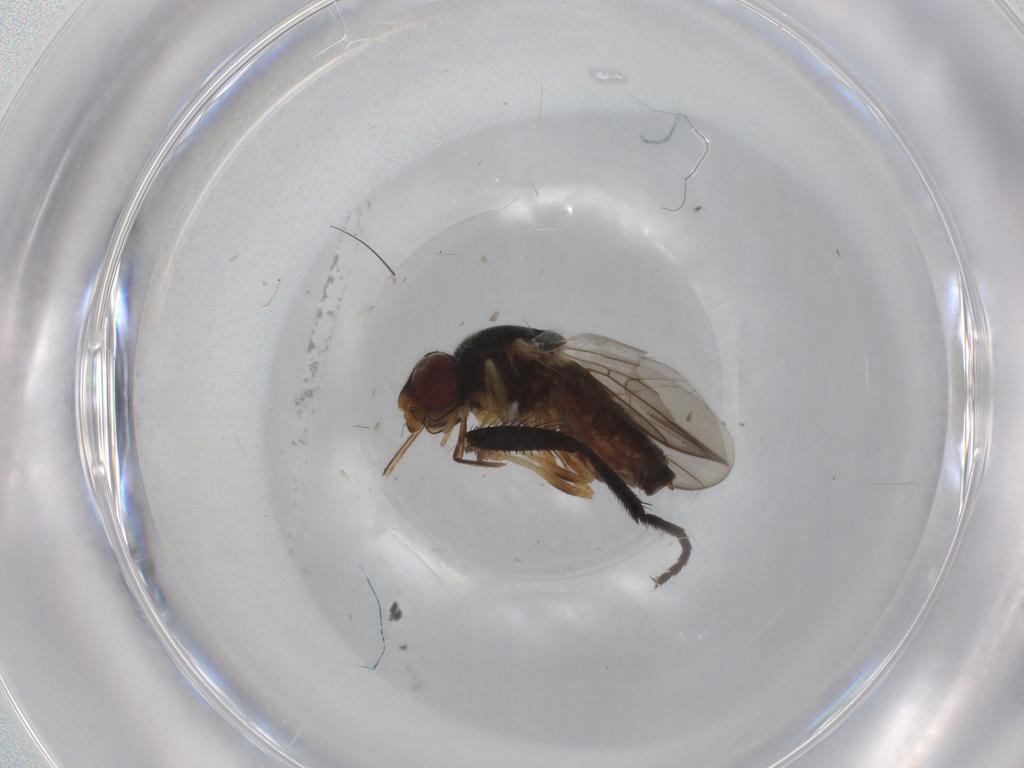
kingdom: Animalia
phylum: Arthropoda
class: Insecta
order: Diptera
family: Chloropidae
